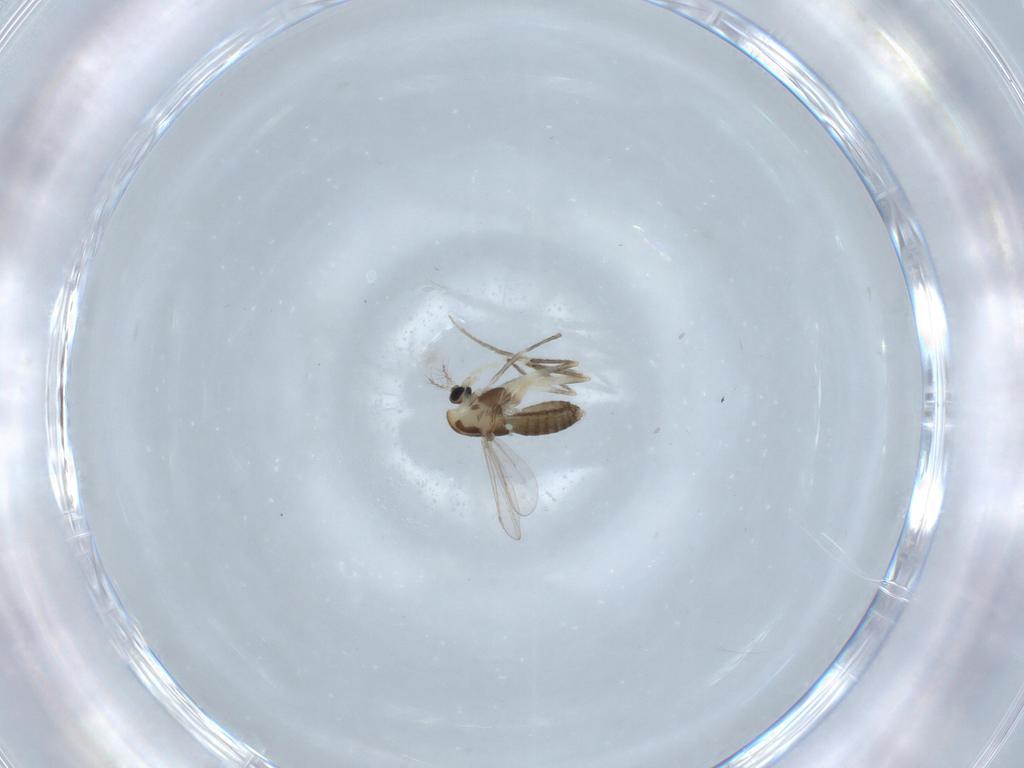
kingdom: Animalia
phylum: Arthropoda
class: Insecta
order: Diptera
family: Chironomidae
